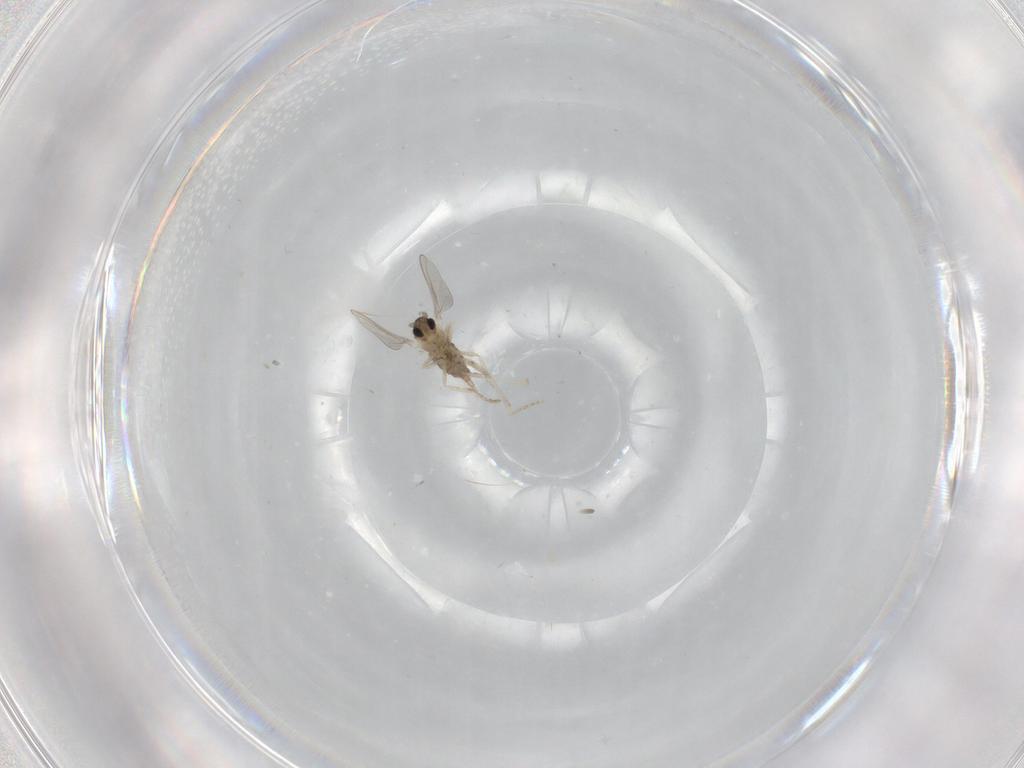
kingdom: Animalia
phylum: Arthropoda
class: Insecta
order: Diptera
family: Cecidomyiidae
